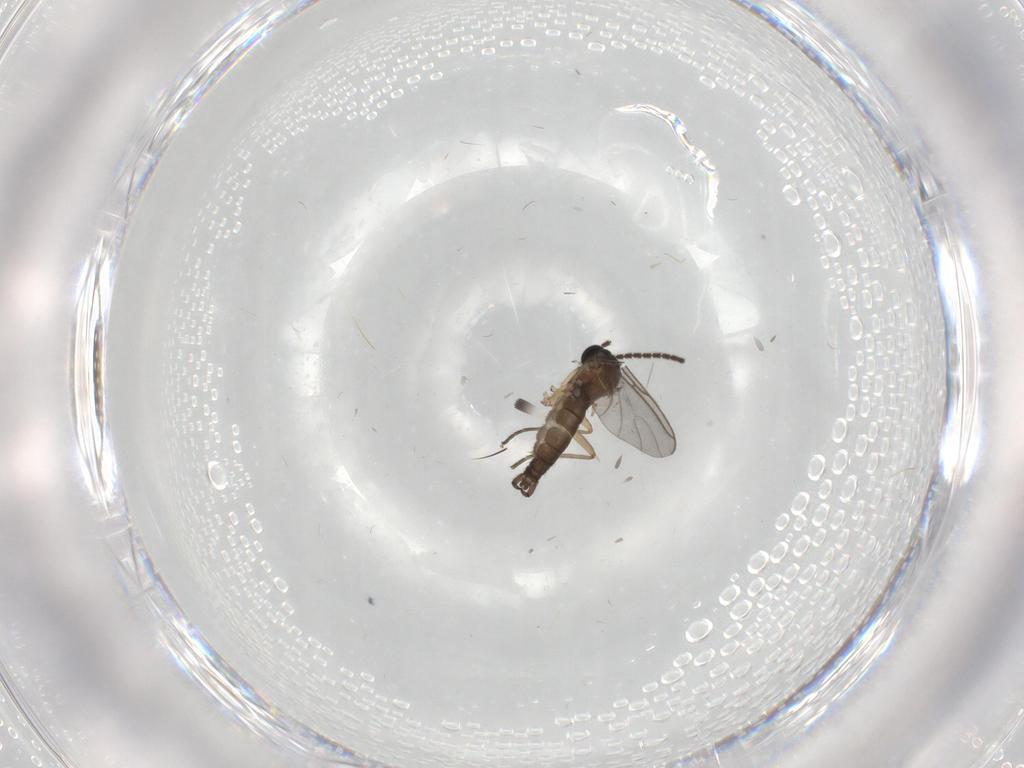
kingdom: Animalia
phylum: Arthropoda
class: Insecta
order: Diptera
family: Sciaridae
